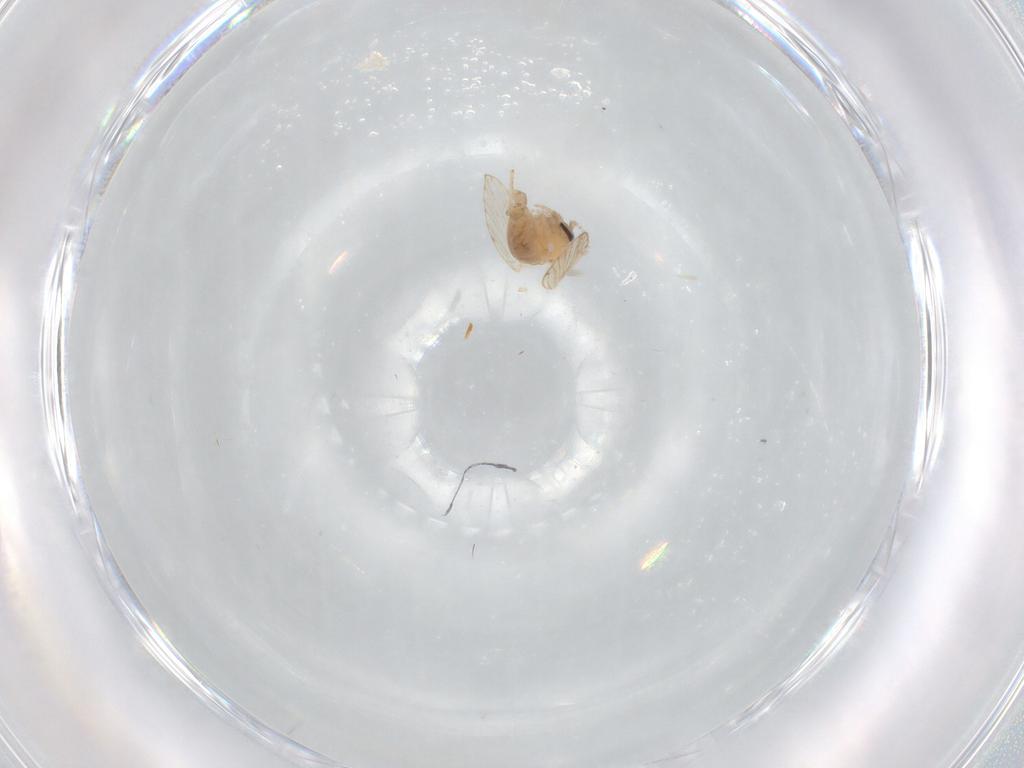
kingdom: Animalia
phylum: Arthropoda
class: Insecta
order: Diptera
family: Psychodidae
